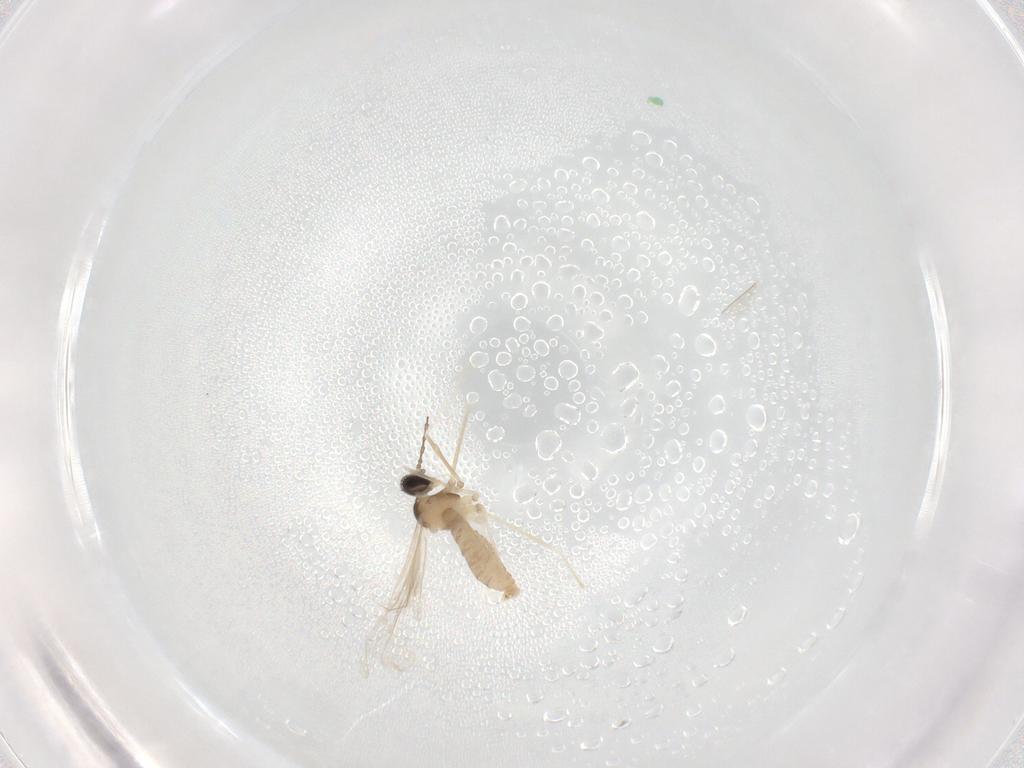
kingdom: Animalia
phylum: Arthropoda
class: Insecta
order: Diptera
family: Cecidomyiidae
